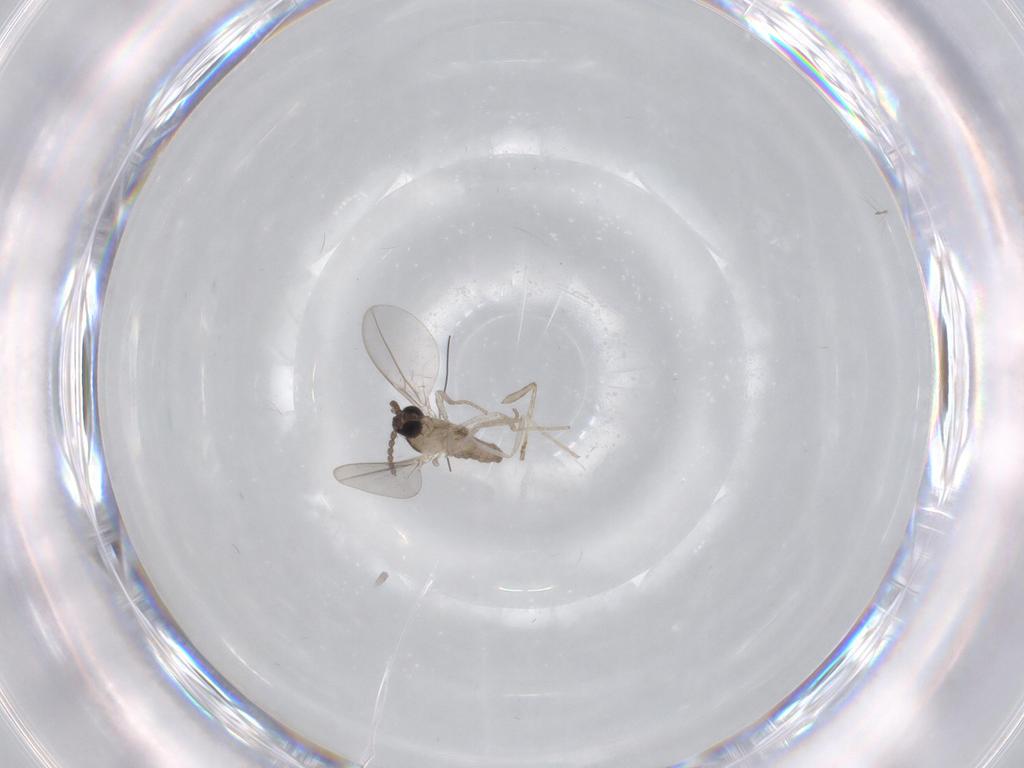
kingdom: Animalia
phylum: Arthropoda
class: Insecta
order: Diptera
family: Cecidomyiidae
